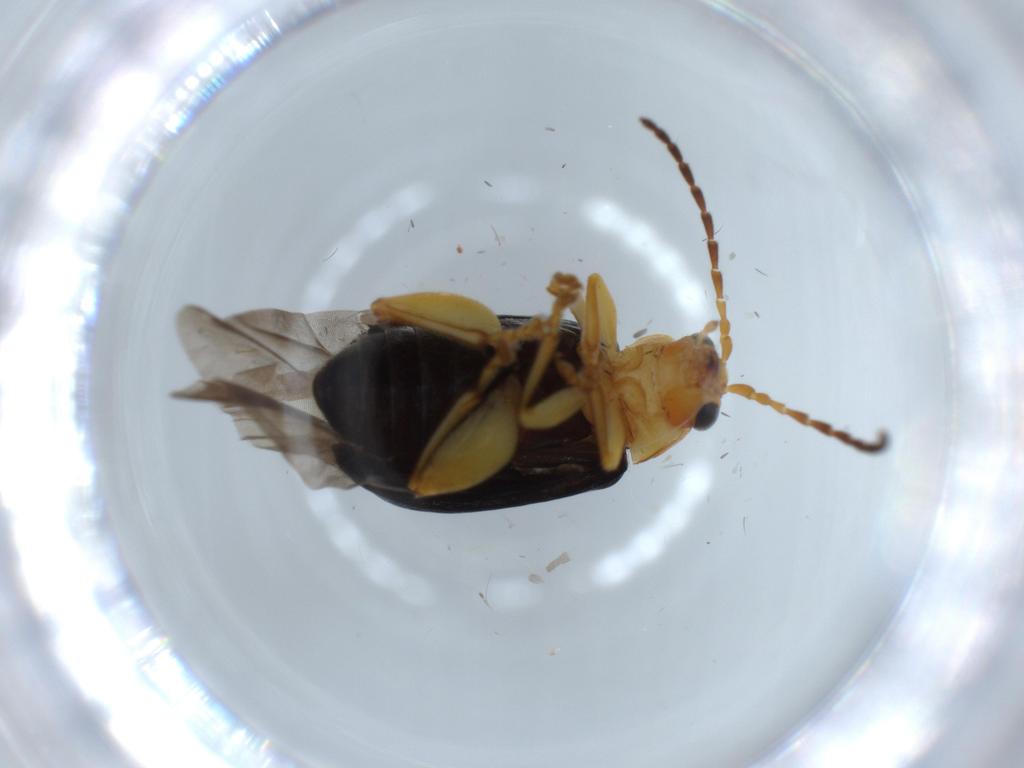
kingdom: Animalia
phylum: Arthropoda
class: Insecta
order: Coleoptera
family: Chrysomelidae
